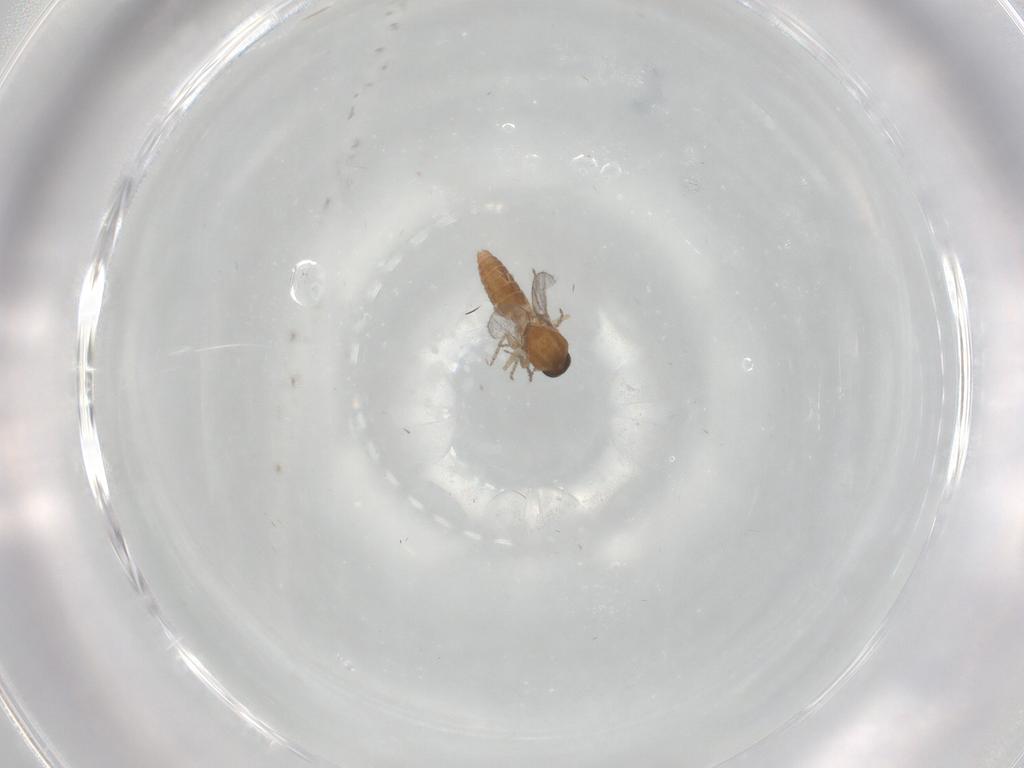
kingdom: Animalia
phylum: Arthropoda
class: Insecta
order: Diptera
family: Ceratopogonidae
